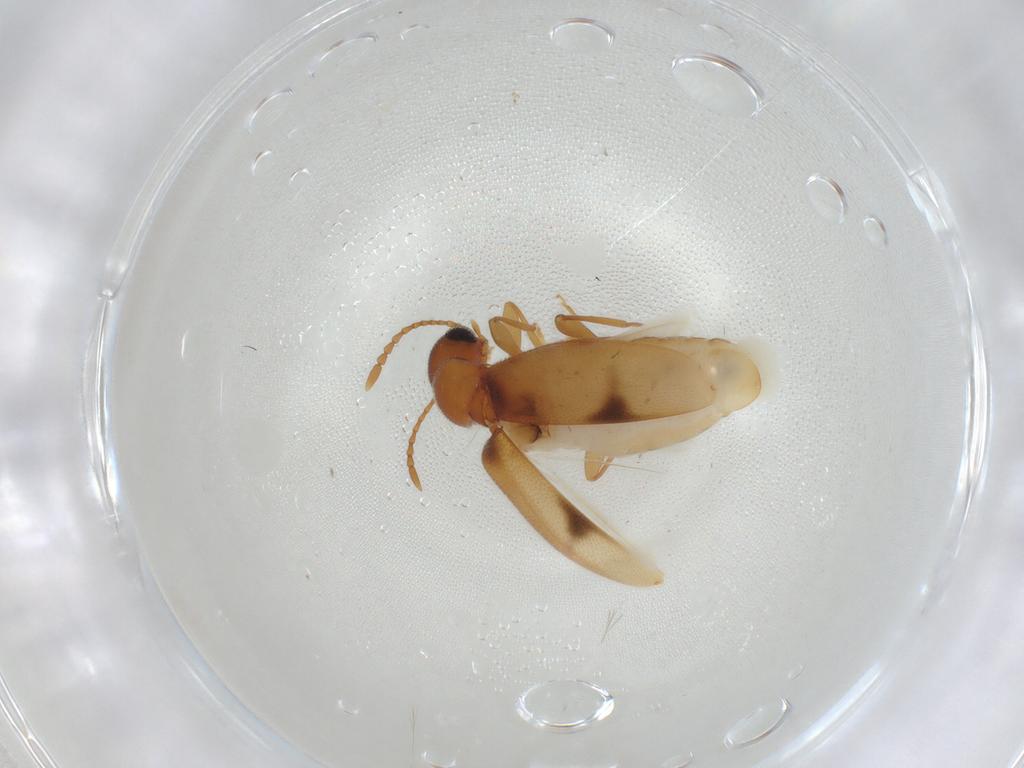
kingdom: Animalia
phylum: Arthropoda
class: Insecta
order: Coleoptera
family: Anthicidae
